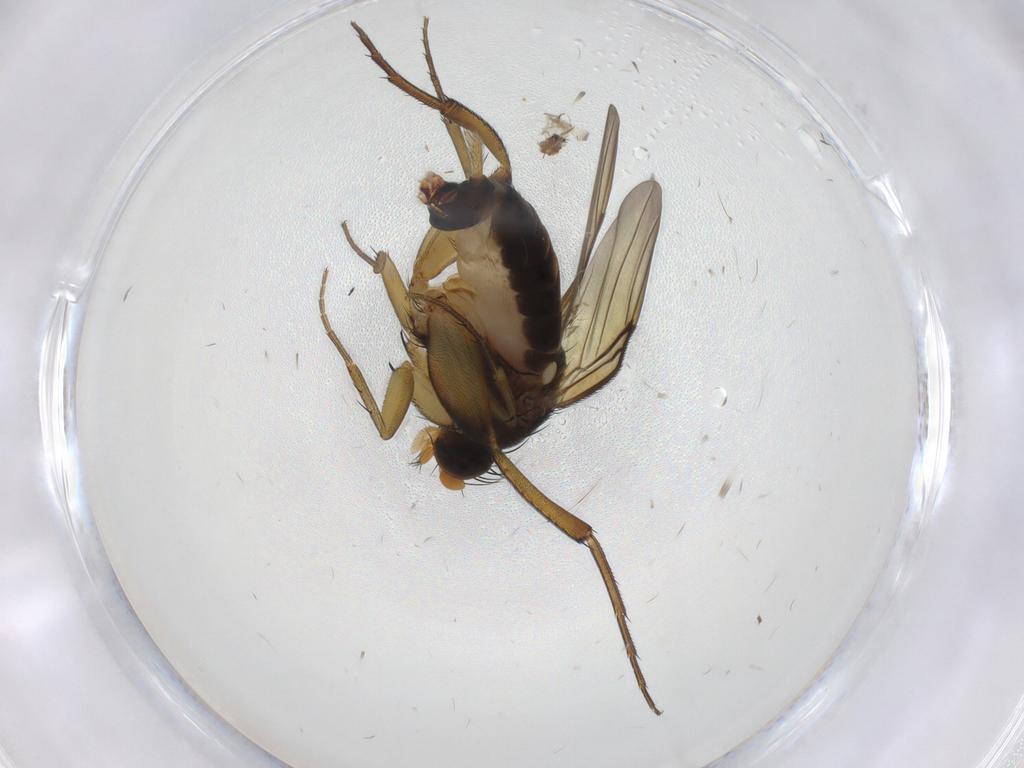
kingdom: Animalia
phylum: Arthropoda
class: Insecta
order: Diptera
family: Phoridae
